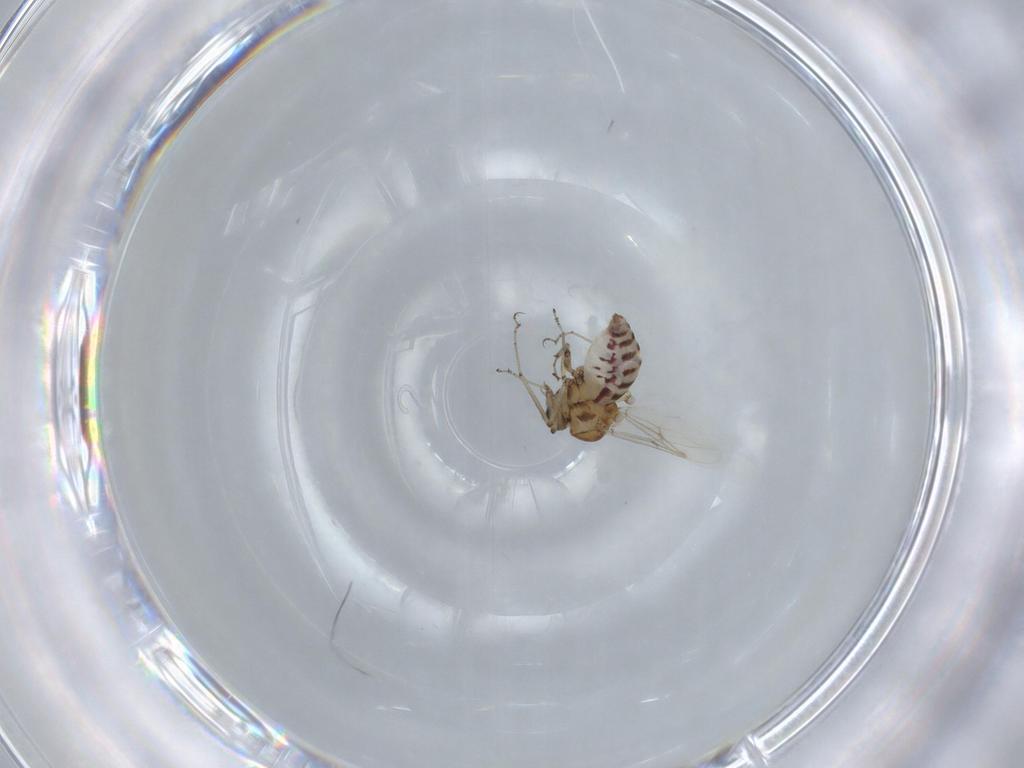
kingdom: Animalia
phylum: Arthropoda
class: Insecta
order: Diptera
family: Ceratopogonidae
